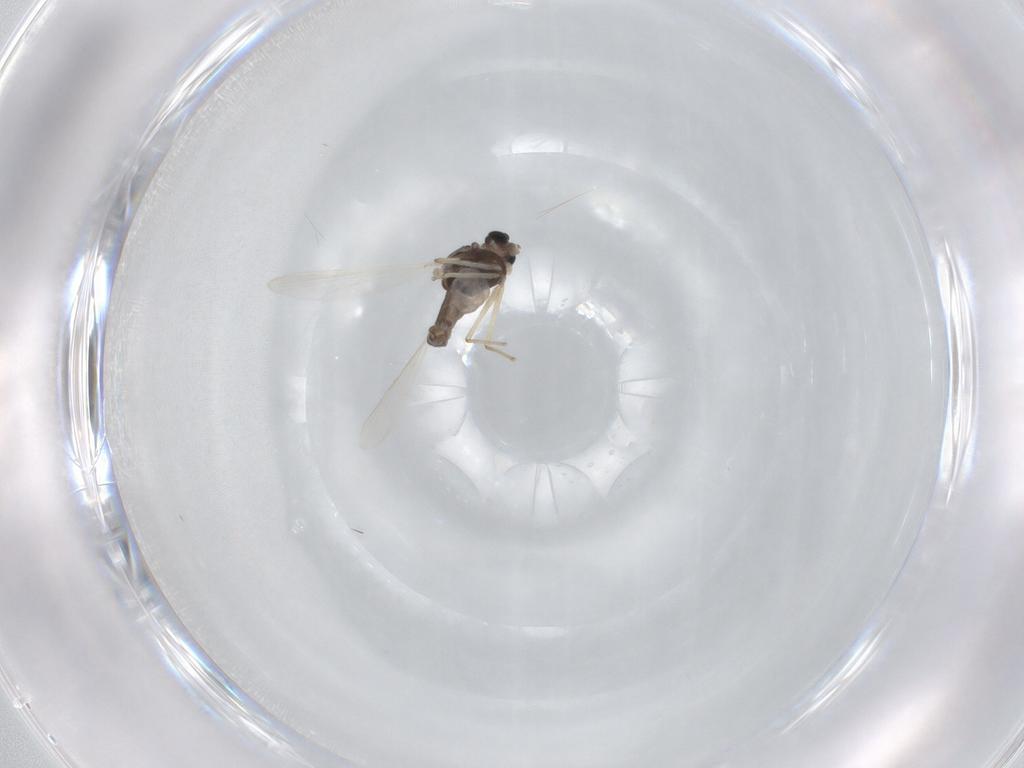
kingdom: Animalia
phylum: Arthropoda
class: Insecta
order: Diptera
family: Chironomidae
